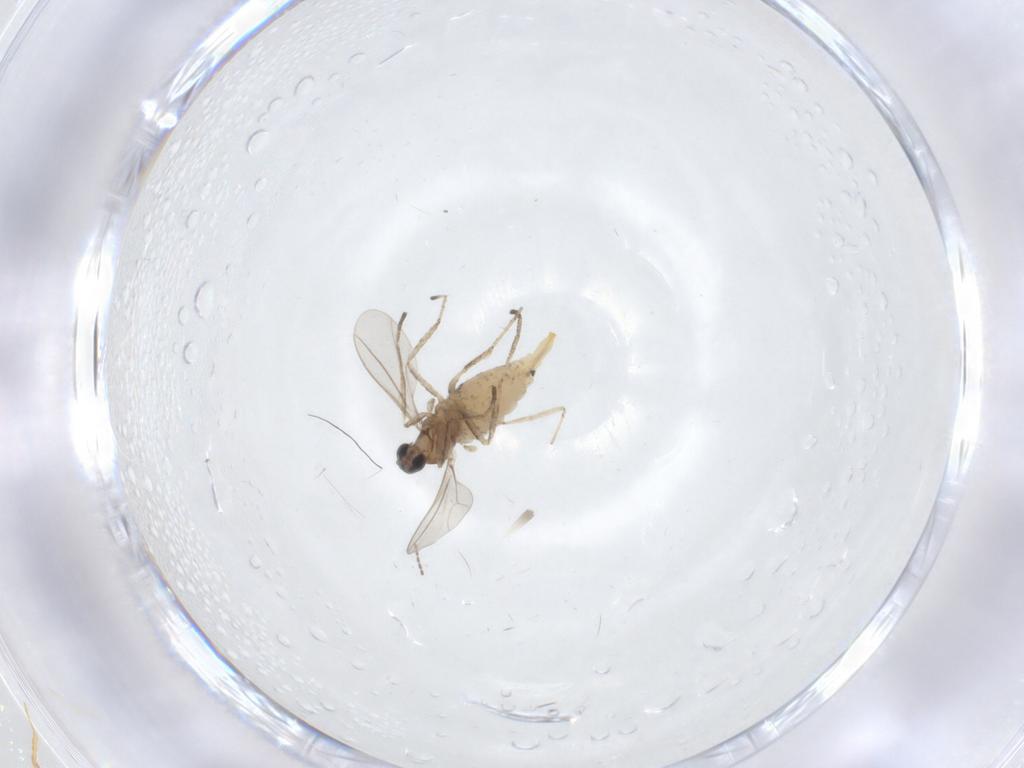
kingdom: Animalia
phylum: Arthropoda
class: Insecta
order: Diptera
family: Cecidomyiidae
